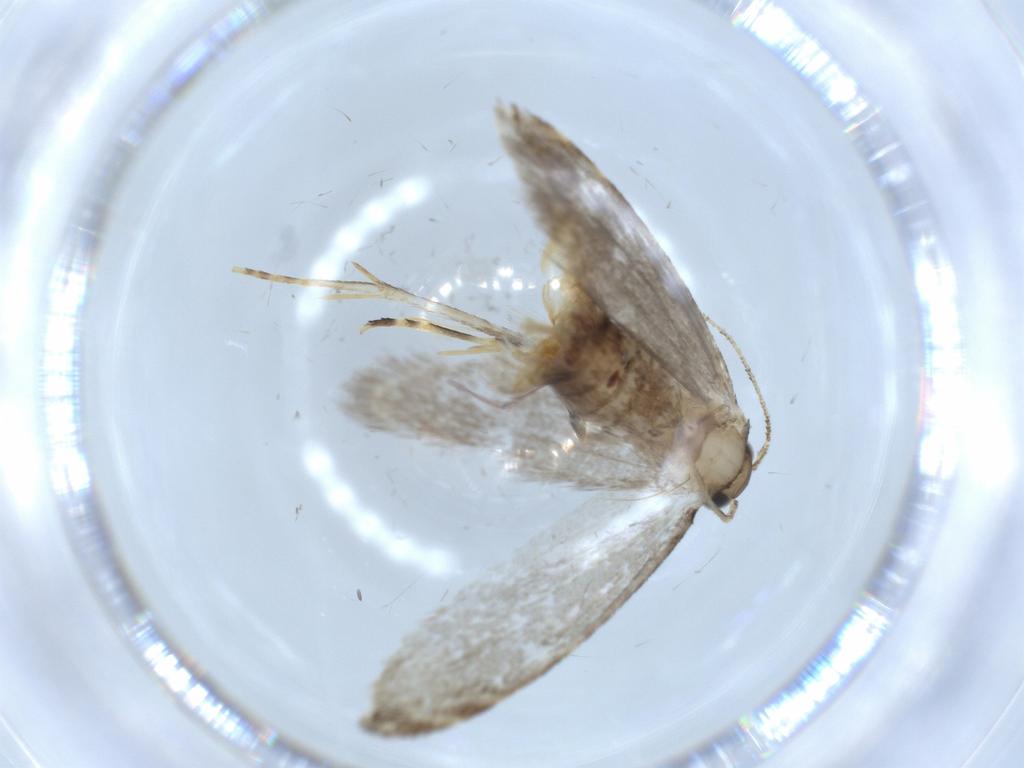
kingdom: Animalia
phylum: Arthropoda
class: Insecta
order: Lepidoptera
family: Tineidae
